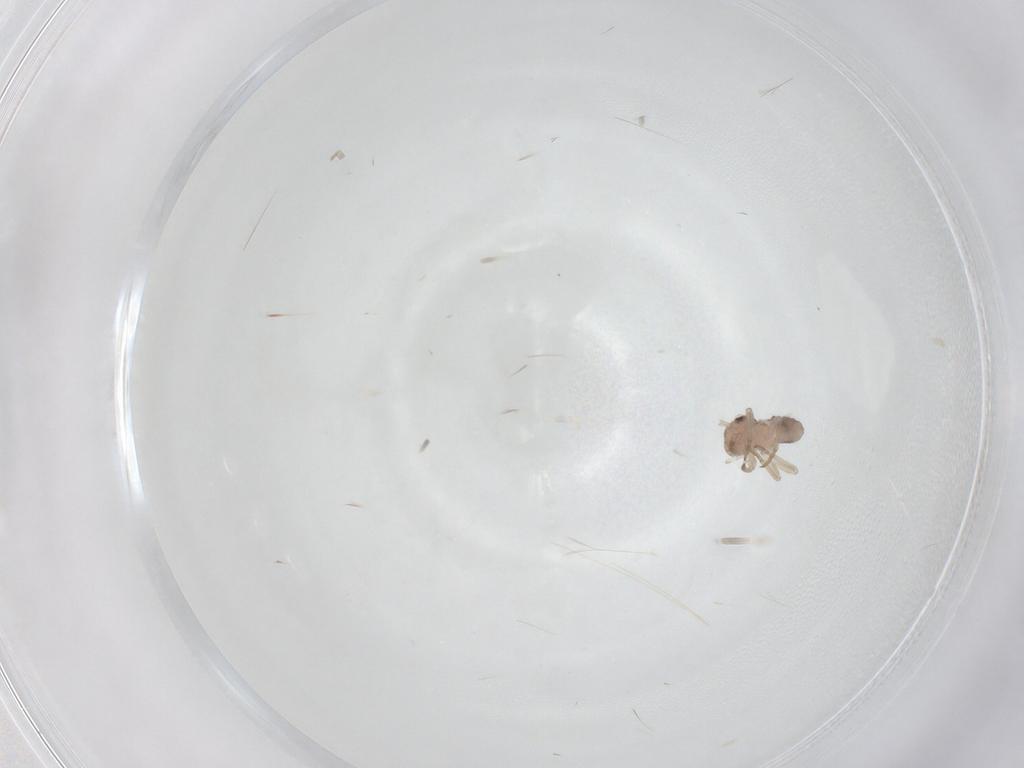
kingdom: Animalia
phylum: Arthropoda
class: Insecta
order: Psocodea
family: Psocidae
